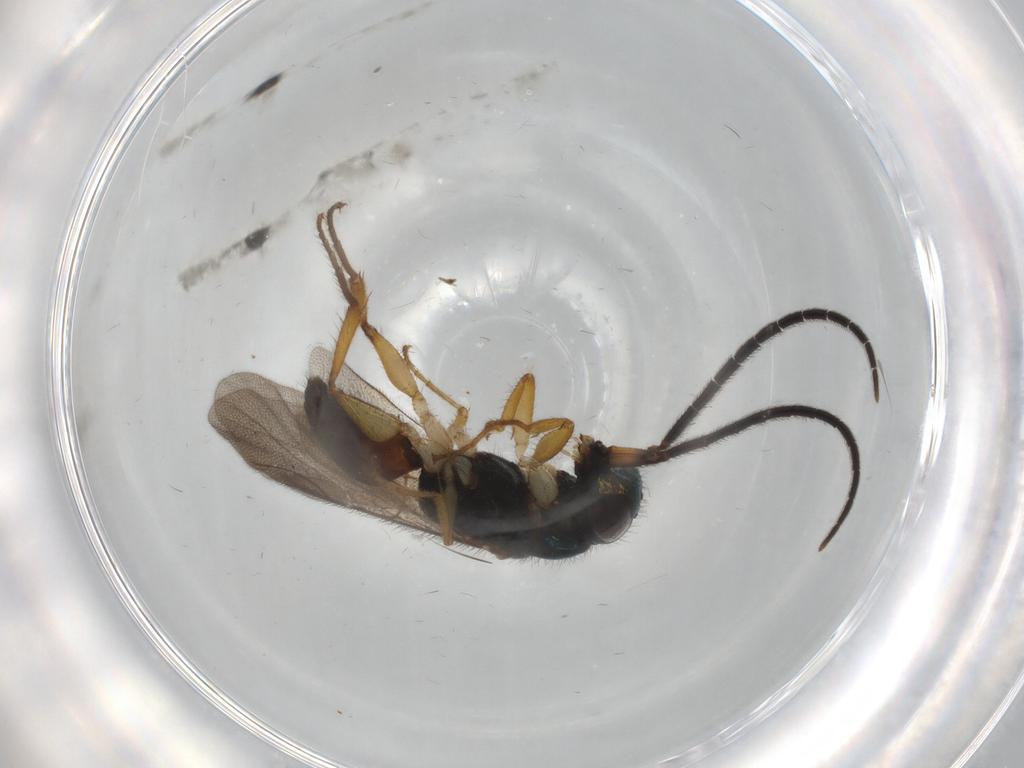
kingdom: Animalia
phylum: Arthropoda
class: Insecta
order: Hymenoptera
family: Chrysididae
